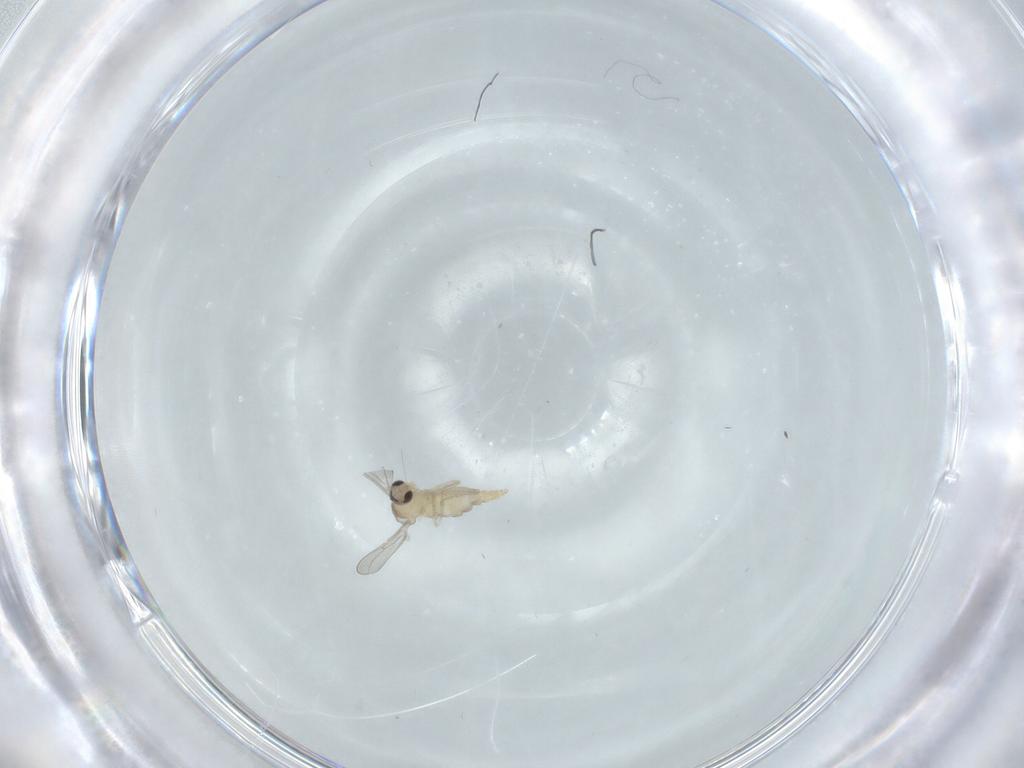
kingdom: Animalia
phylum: Arthropoda
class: Insecta
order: Diptera
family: Cecidomyiidae
